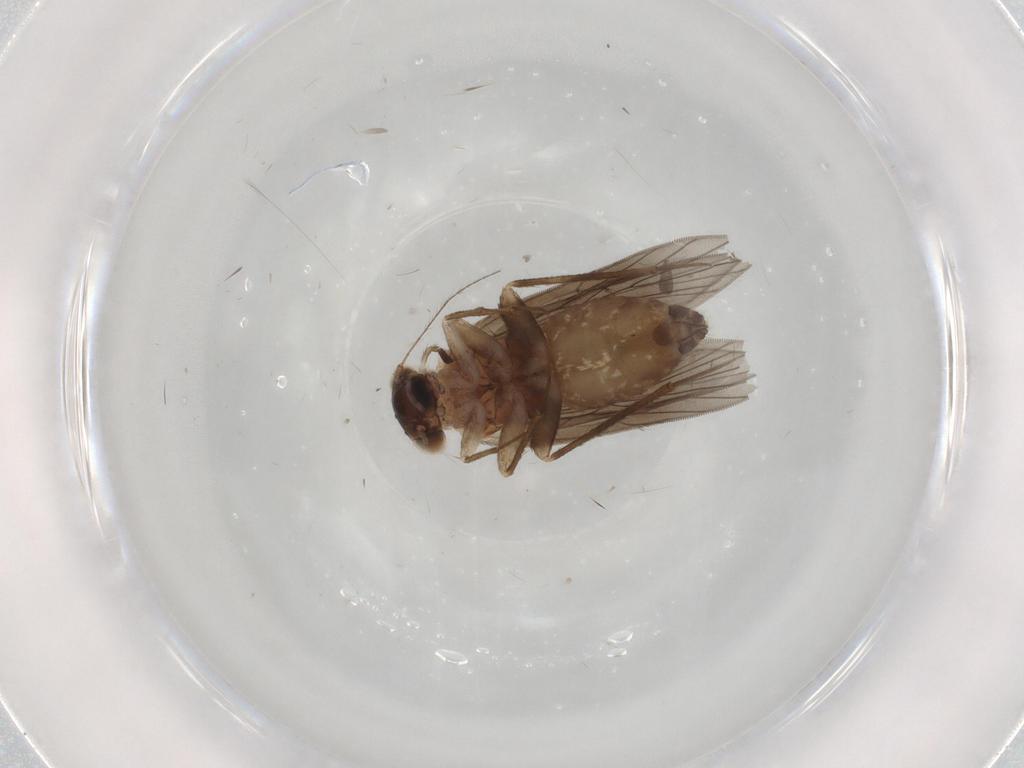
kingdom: Animalia
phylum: Arthropoda
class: Insecta
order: Psocodea
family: Lepidopsocidae
